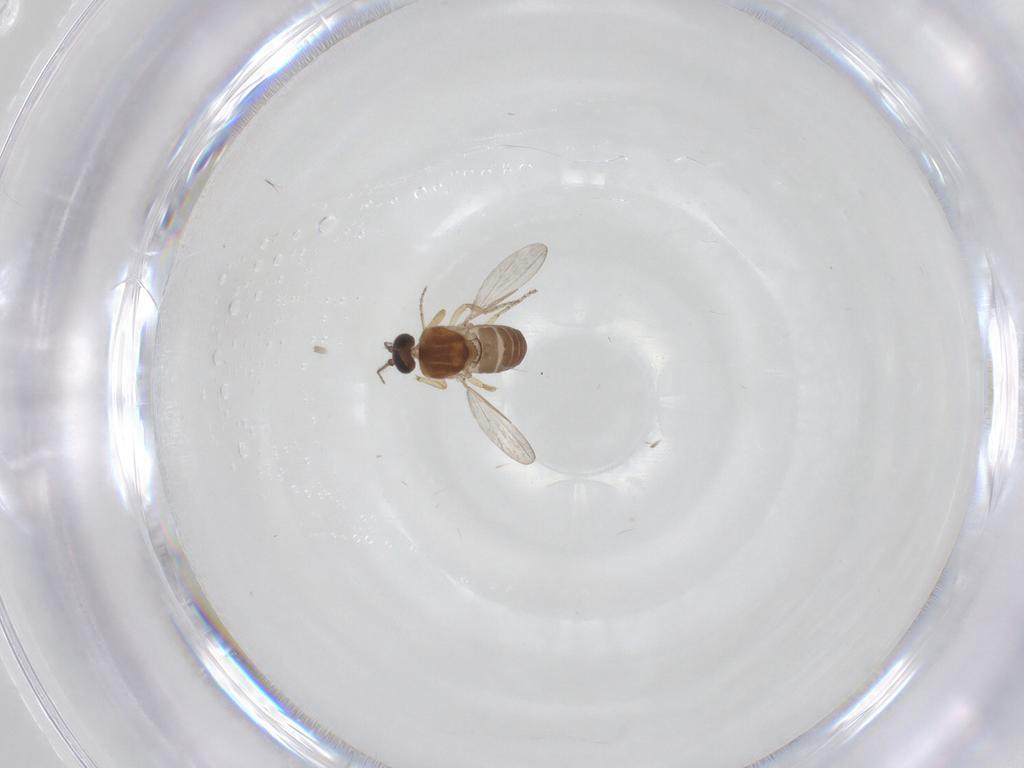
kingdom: Animalia
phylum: Arthropoda
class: Insecta
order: Diptera
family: Ceratopogonidae
